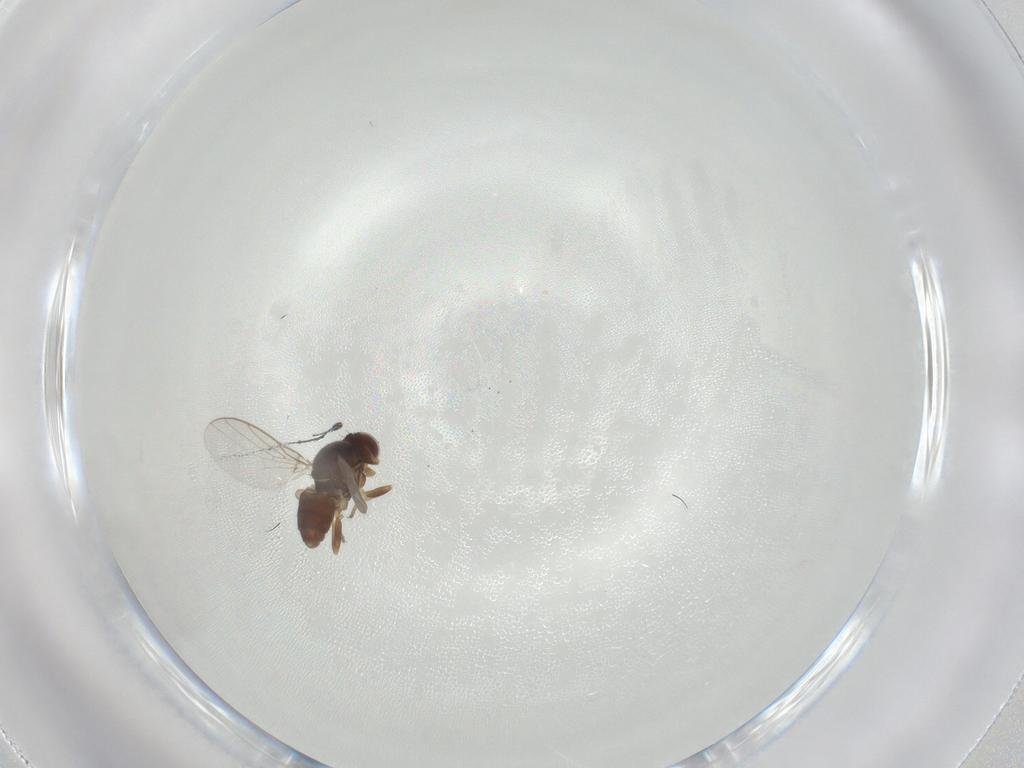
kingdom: Animalia
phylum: Arthropoda
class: Insecta
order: Diptera
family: Chloropidae
